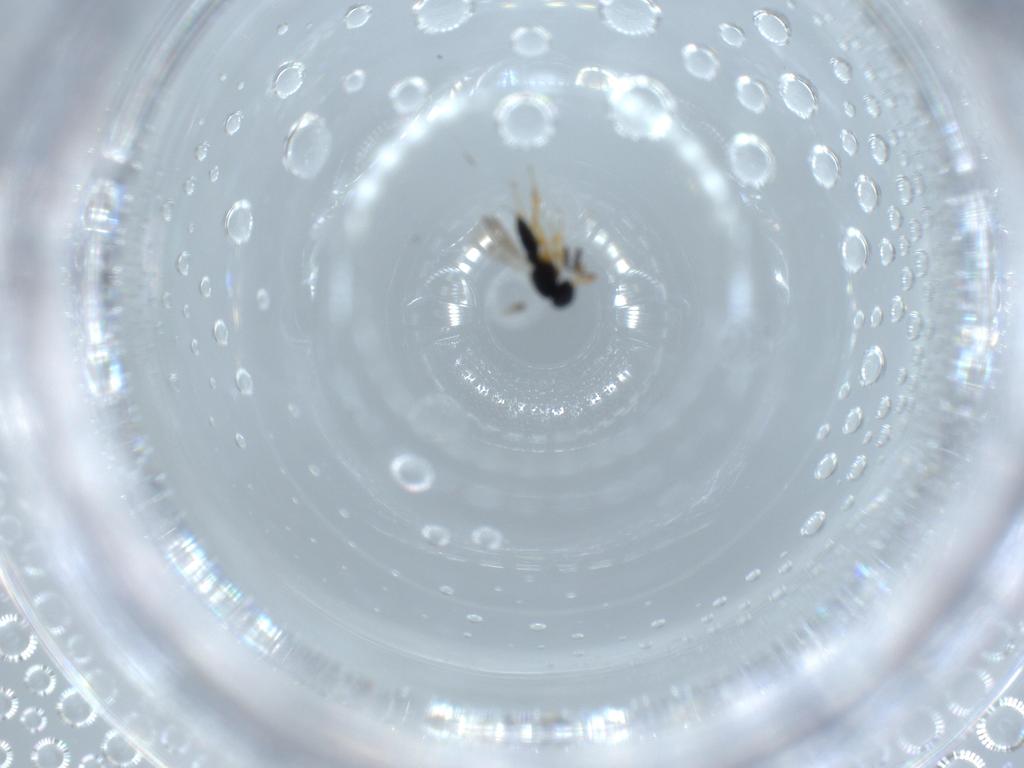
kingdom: Animalia
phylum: Arthropoda
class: Insecta
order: Hymenoptera
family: Scelionidae
